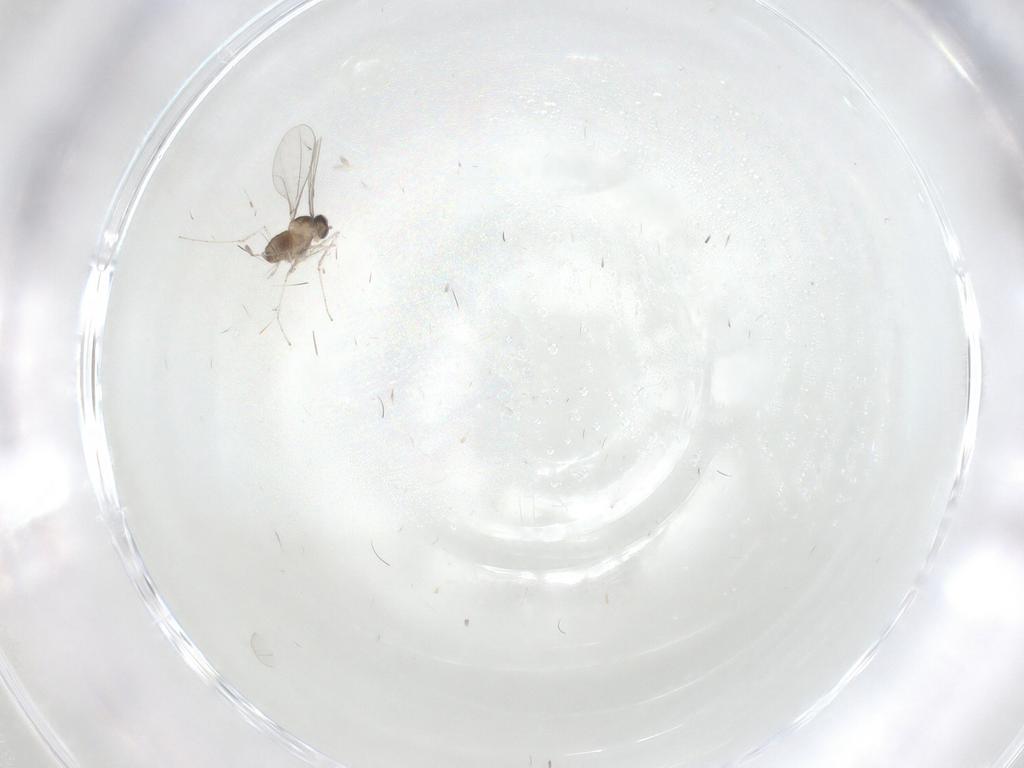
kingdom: Animalia
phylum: Arthropoda
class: Insecta
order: Diptera
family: Cecidomyiidae
